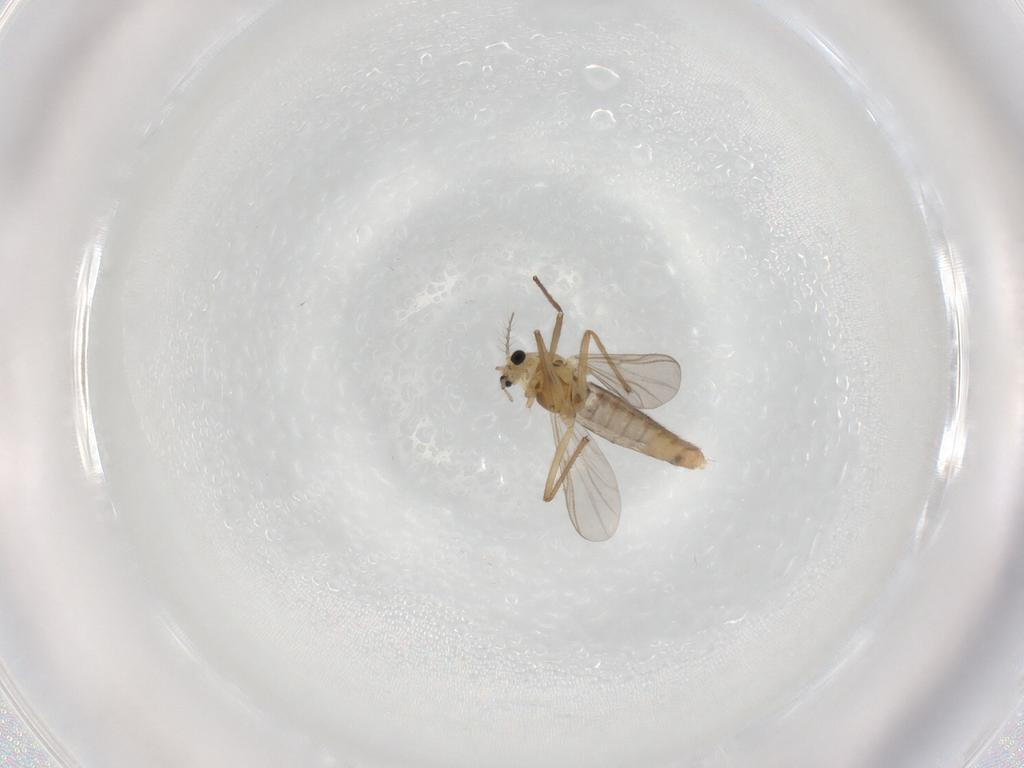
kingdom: Animalia
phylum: Arthropoda
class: Insecta
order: Diptera
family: Chironomidae
